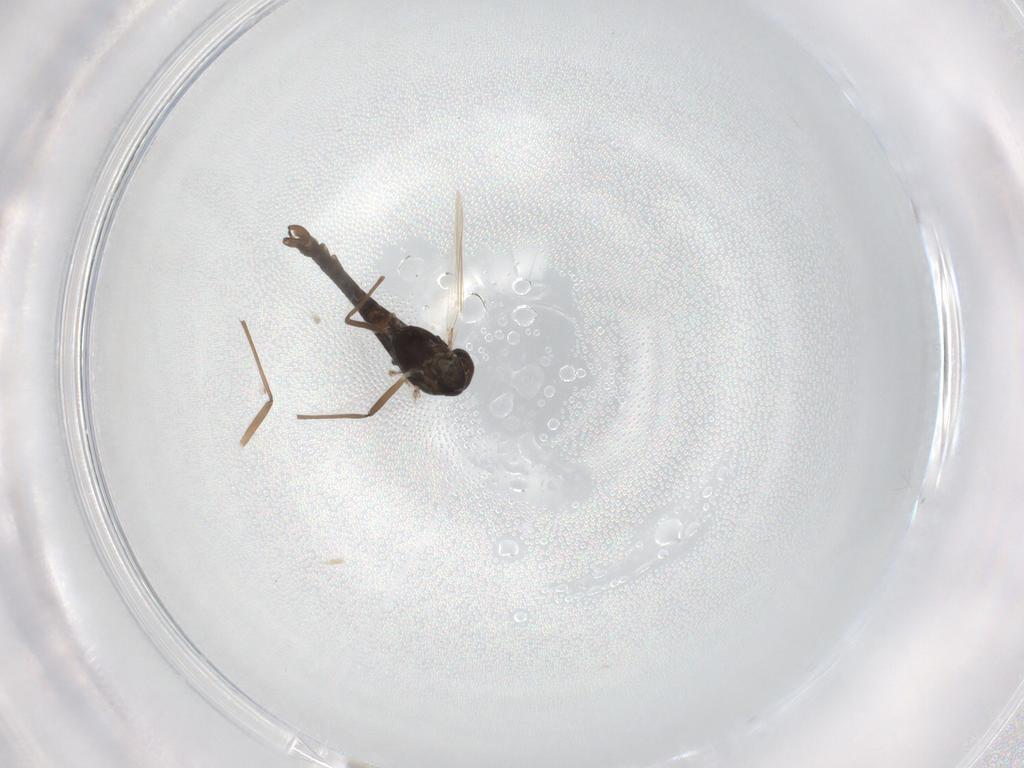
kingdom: Animalia
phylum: Arthropoda
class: Insecta
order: Diptera
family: Chironomidae
